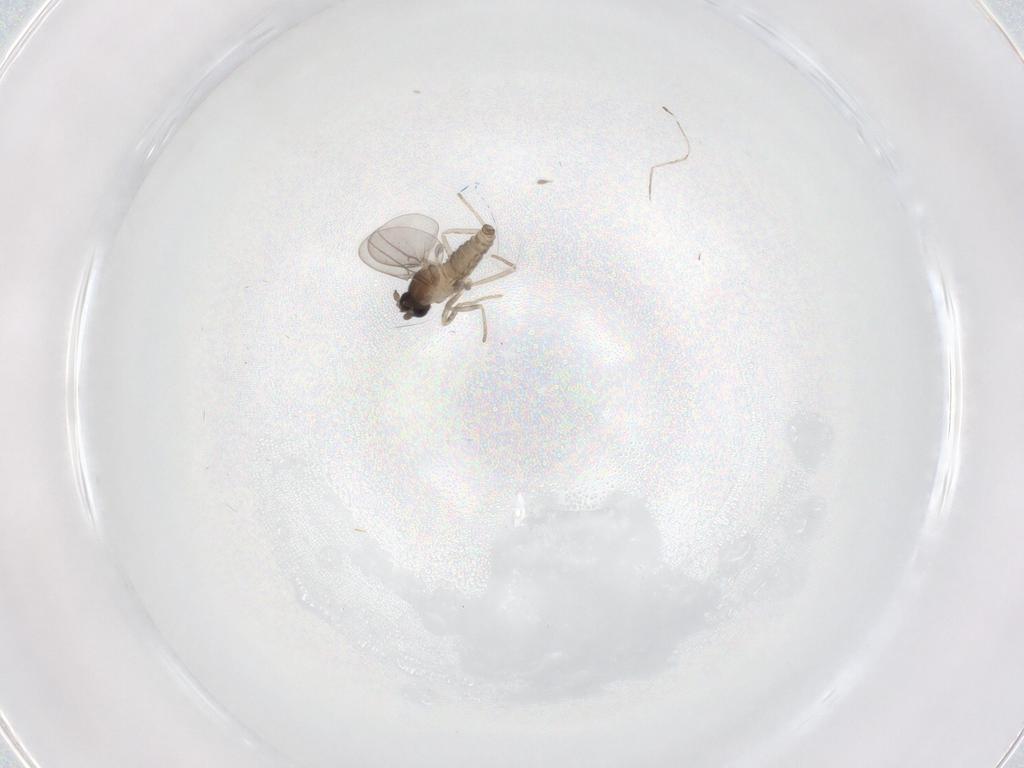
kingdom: Animalia
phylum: Arthropoda
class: Insecta
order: Diptera
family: Cecidomyiidae
